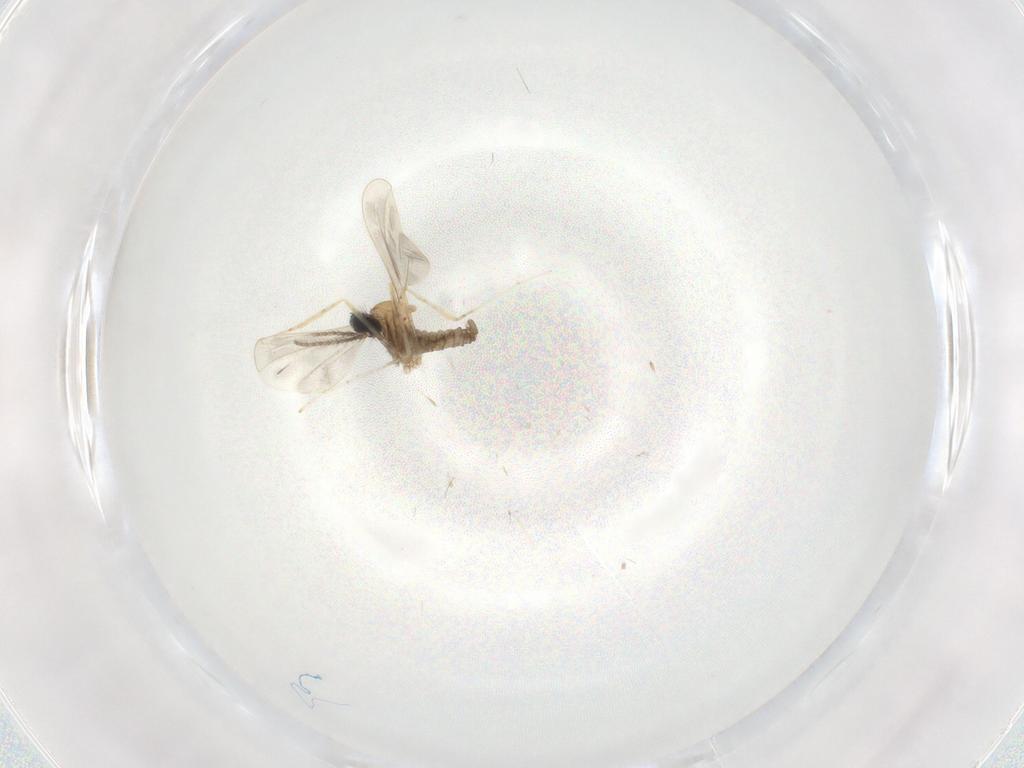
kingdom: Animalia
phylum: Arthropoda
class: Insecta
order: Diptera
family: Cecidomyiidae
